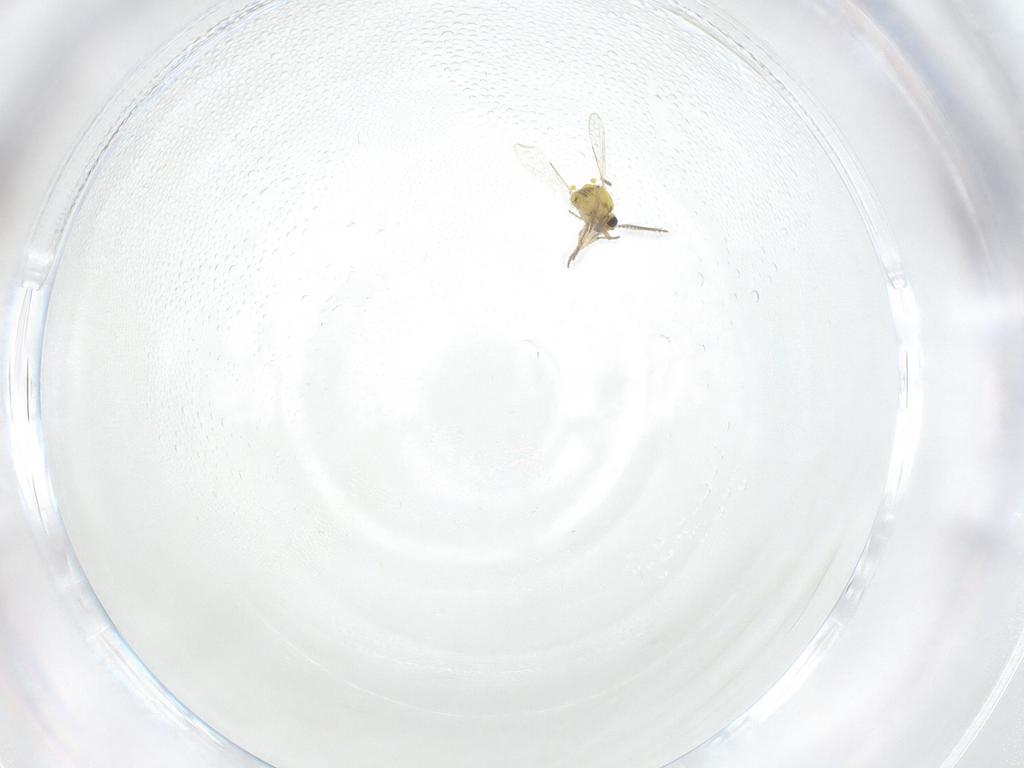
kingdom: Animalia
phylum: Arthropoda
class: Insecta
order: Diptera
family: Ceratopogonidae
